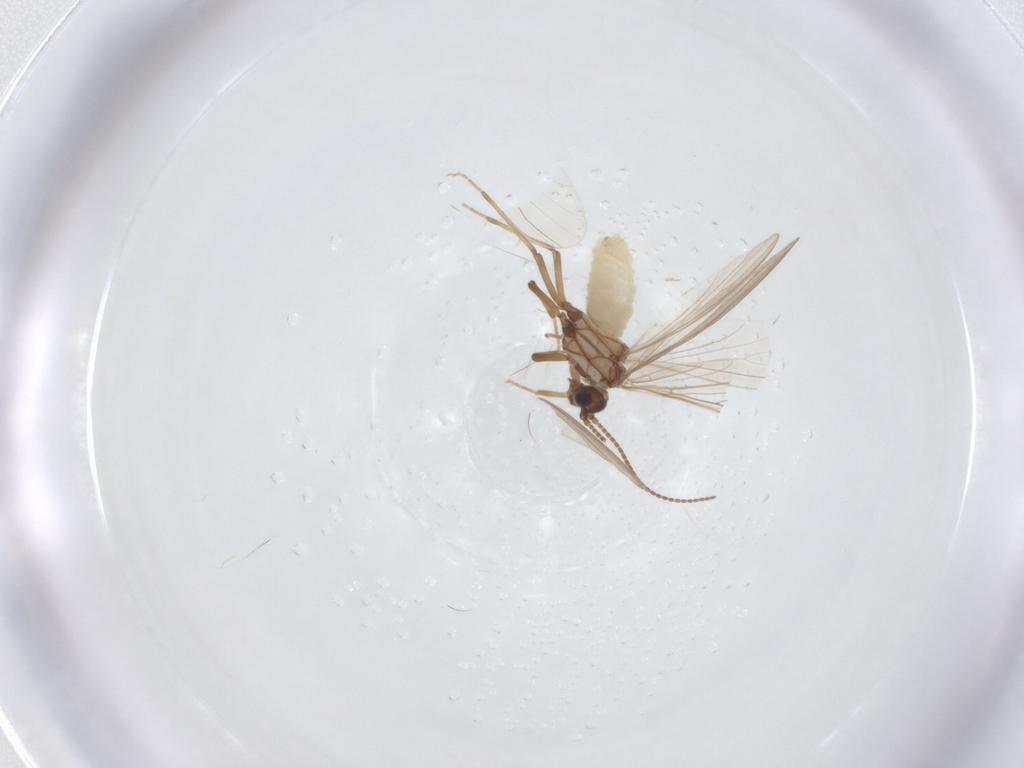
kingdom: Animalia
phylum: Arthropoda
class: Insecta
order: Neuroptera
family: Coniopterygidae
